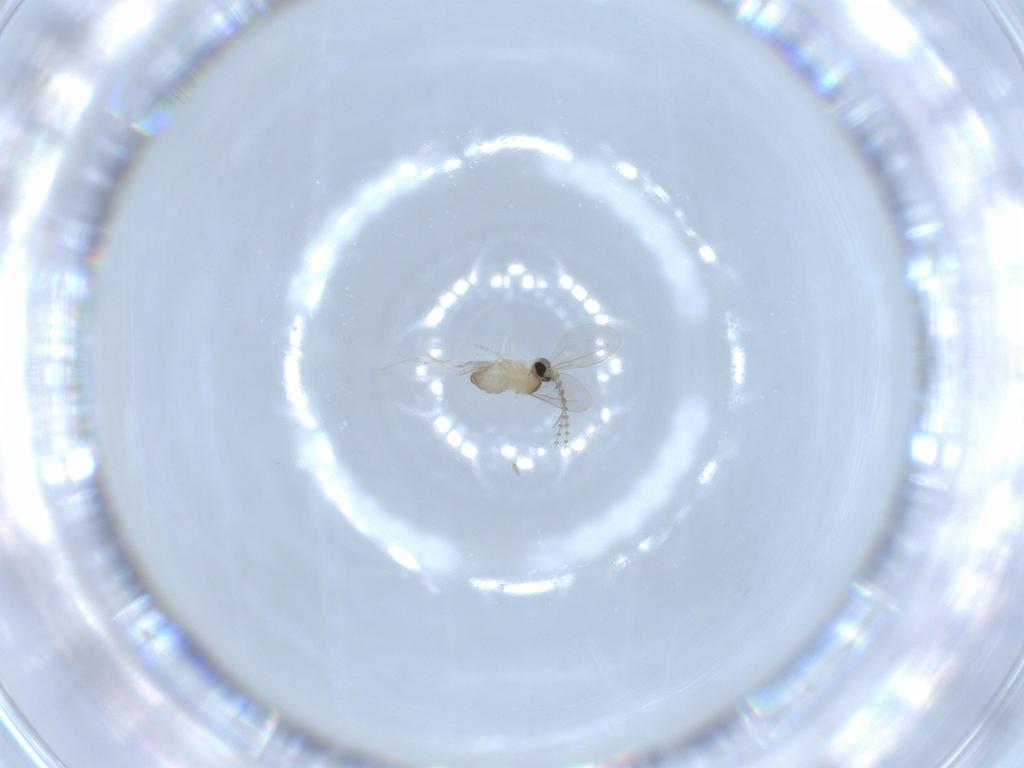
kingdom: Animalia
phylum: Arthropoda
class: Insecta
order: Diptera
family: Cecidomyiidae
